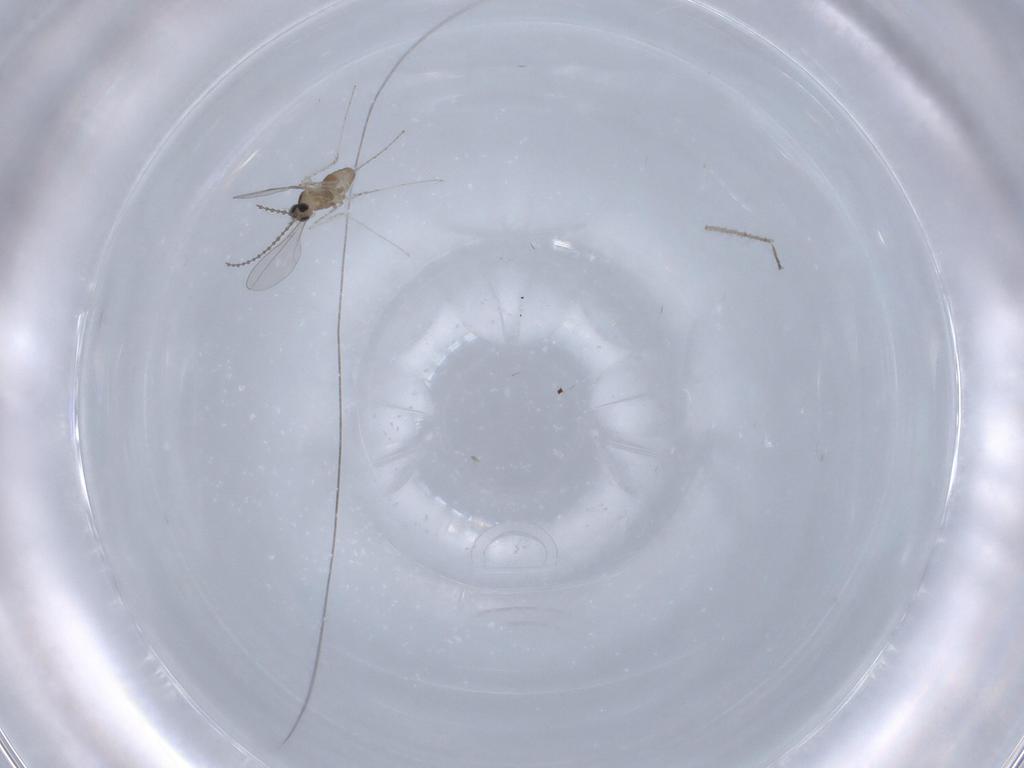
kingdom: Animalia
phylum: Arthropoda
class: Insecta
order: Diptera
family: Cecidomyiidae
